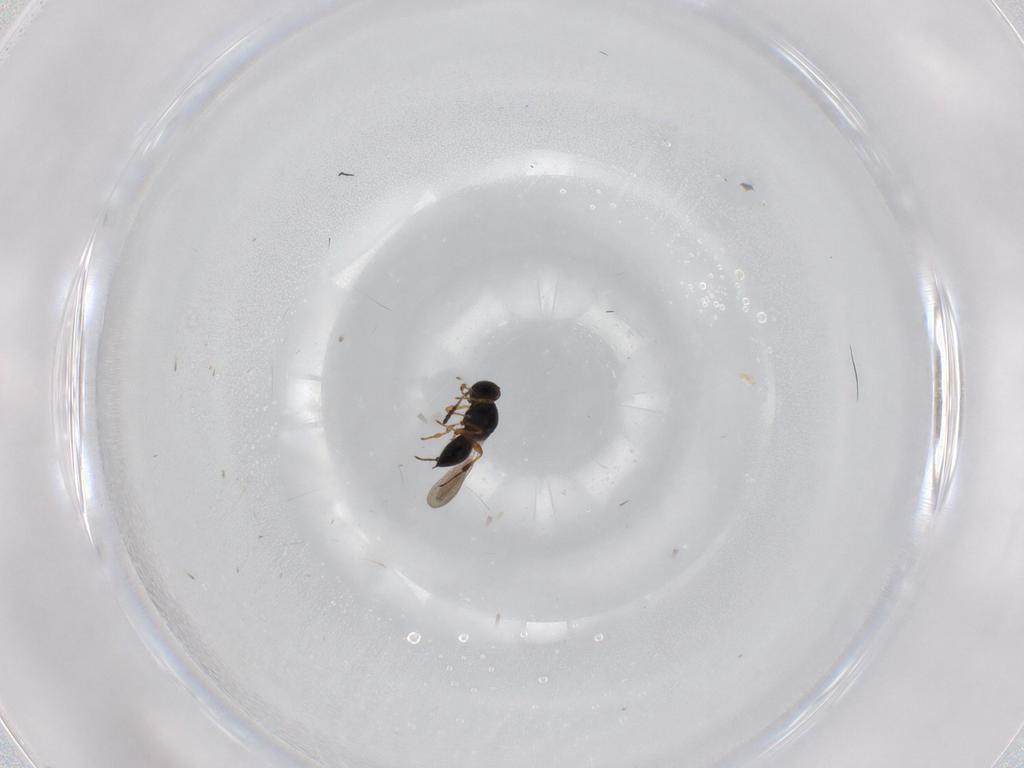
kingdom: Animalia
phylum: Arthropoda
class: Insecta
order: Hymenoptera
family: Platygastridae
